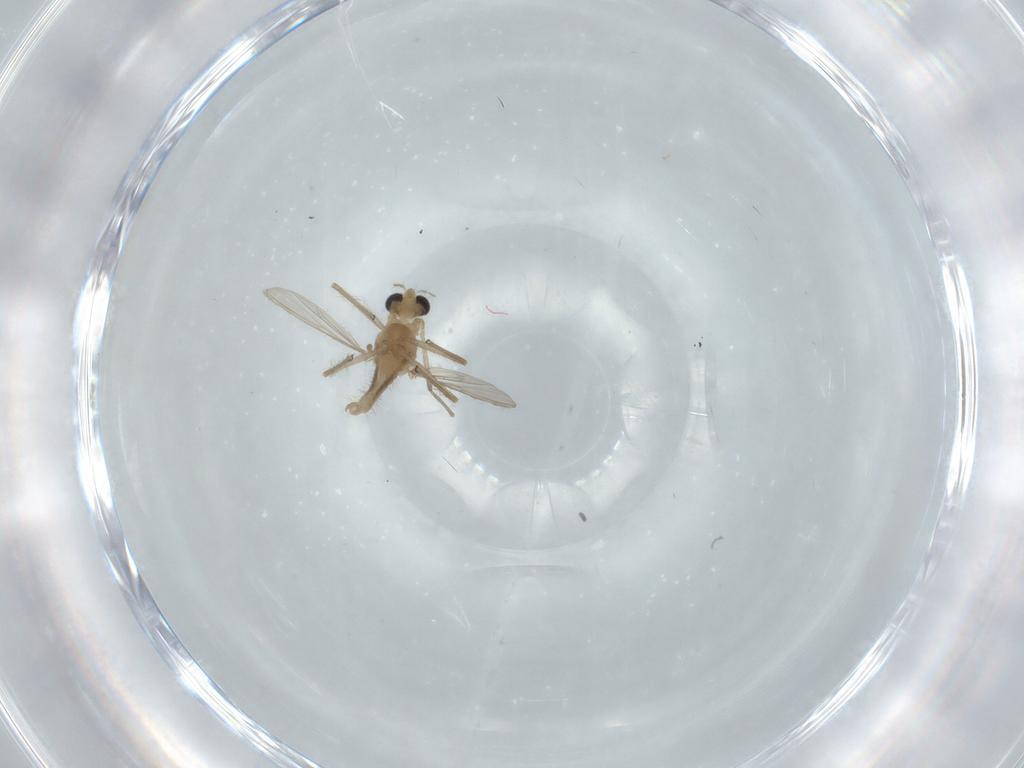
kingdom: Animalia
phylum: Arthropoda
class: Insecta
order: Diptera
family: Chironomidae
